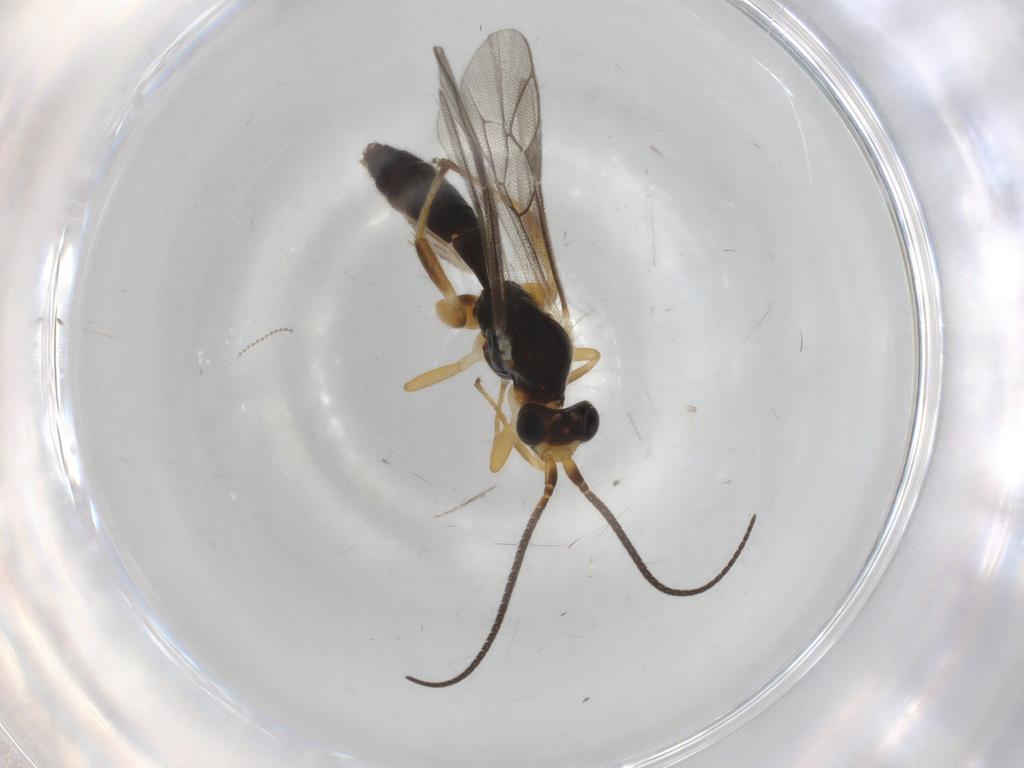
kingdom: Animalia
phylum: Arthropoda
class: Insecta
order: Hymenoptera
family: Ichneumonidae
